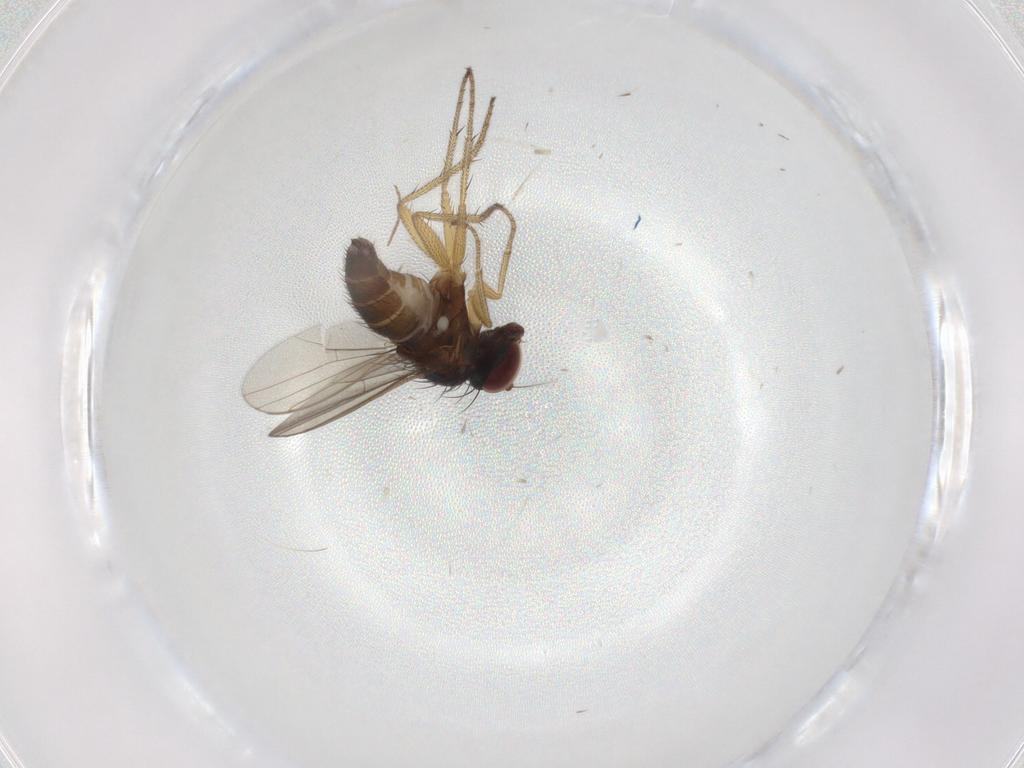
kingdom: Animalia
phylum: Arthropoda
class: Insecta
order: Diptera
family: Dolichopodidae
